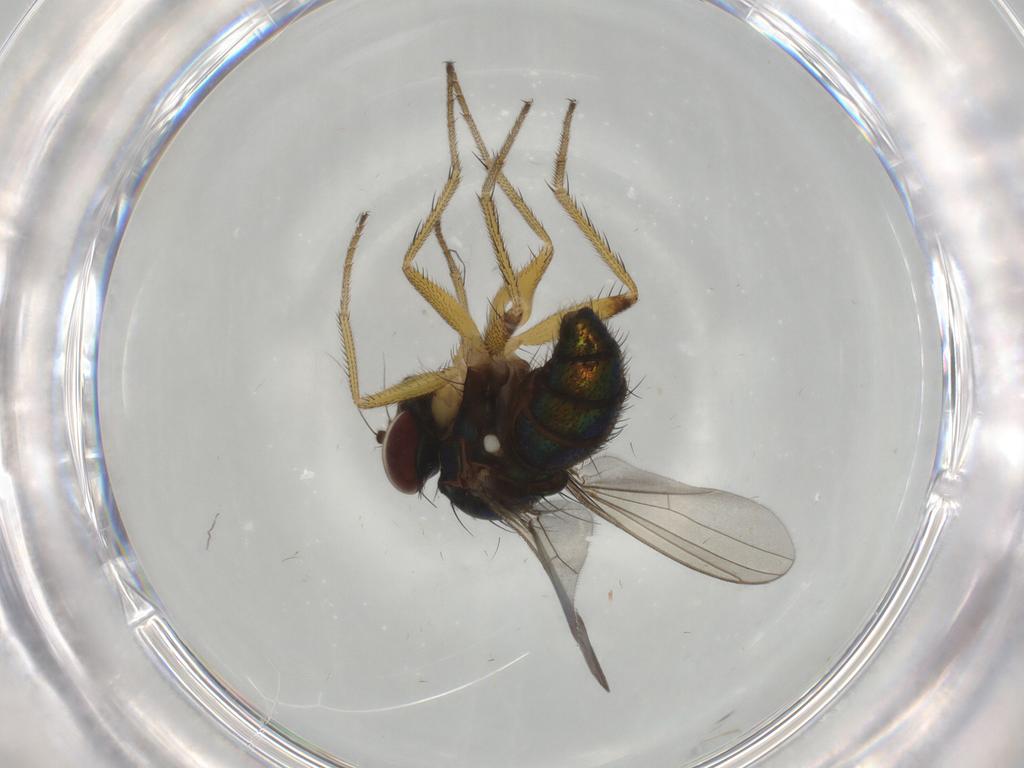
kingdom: Animalia
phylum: Arthropoda
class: Insecta
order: Diptera
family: Dolichopodidae
